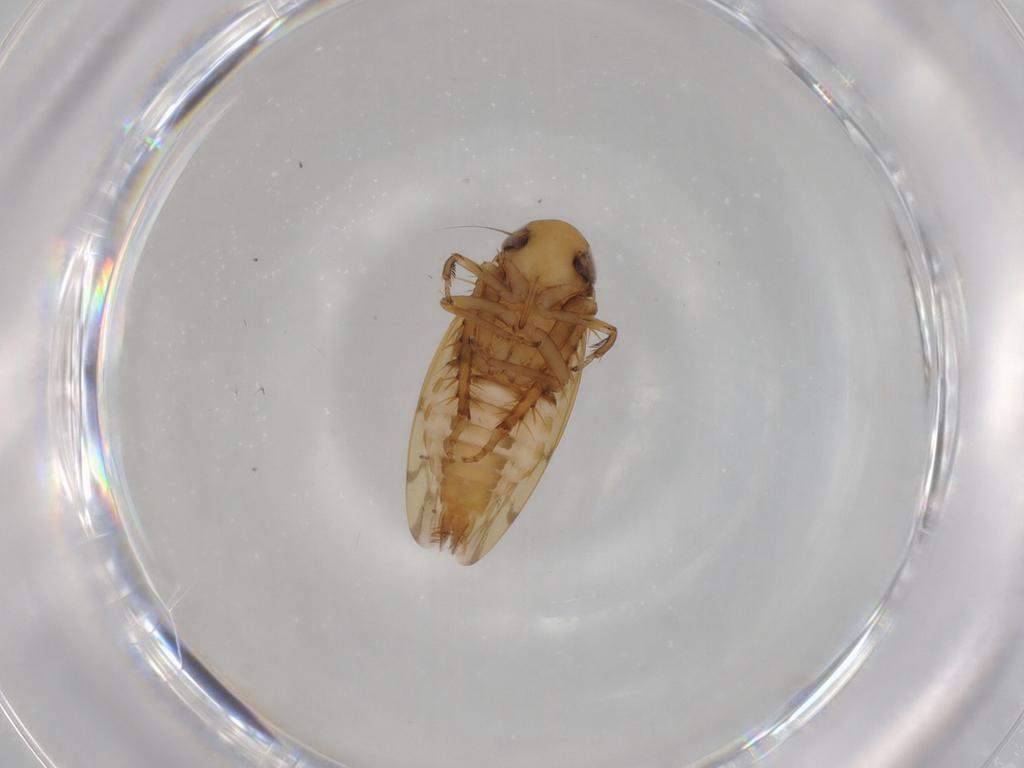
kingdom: Animalia
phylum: Arthropoda
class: Insecta
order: Hemiptera
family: Cicadellidae
